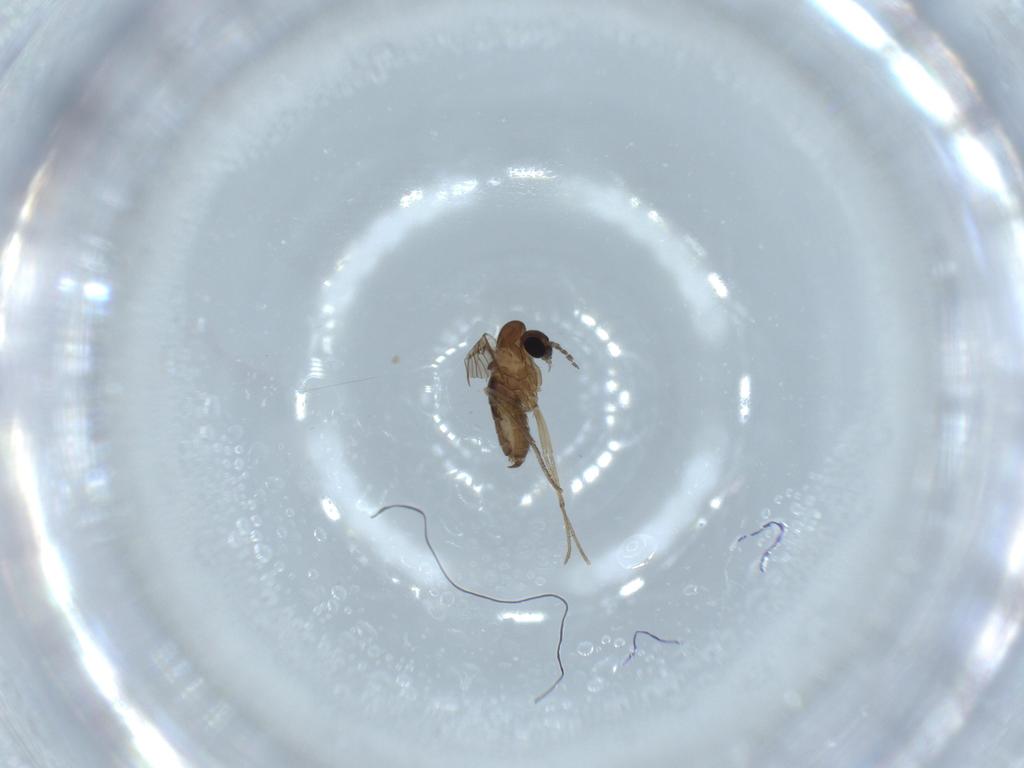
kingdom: Animalia
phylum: Arthropoda
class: Insecta
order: Diptera
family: Psychodidae
